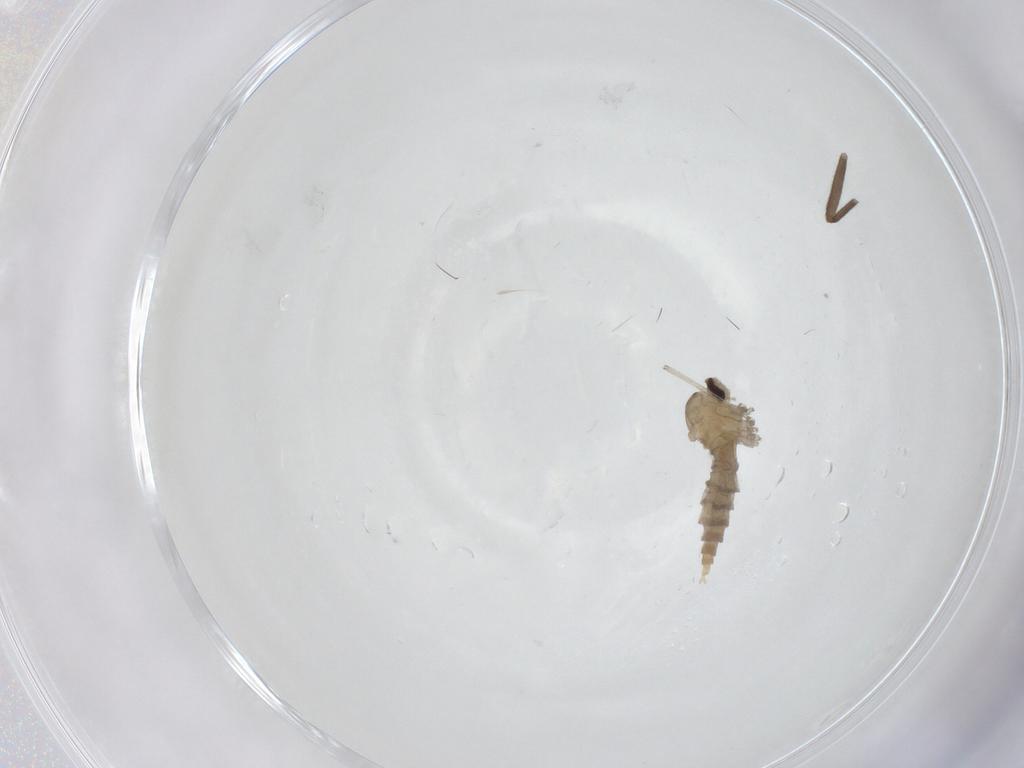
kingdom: Animalia
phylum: Arthropoda
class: Insecta
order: Diptera
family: Cecidomyiidae
